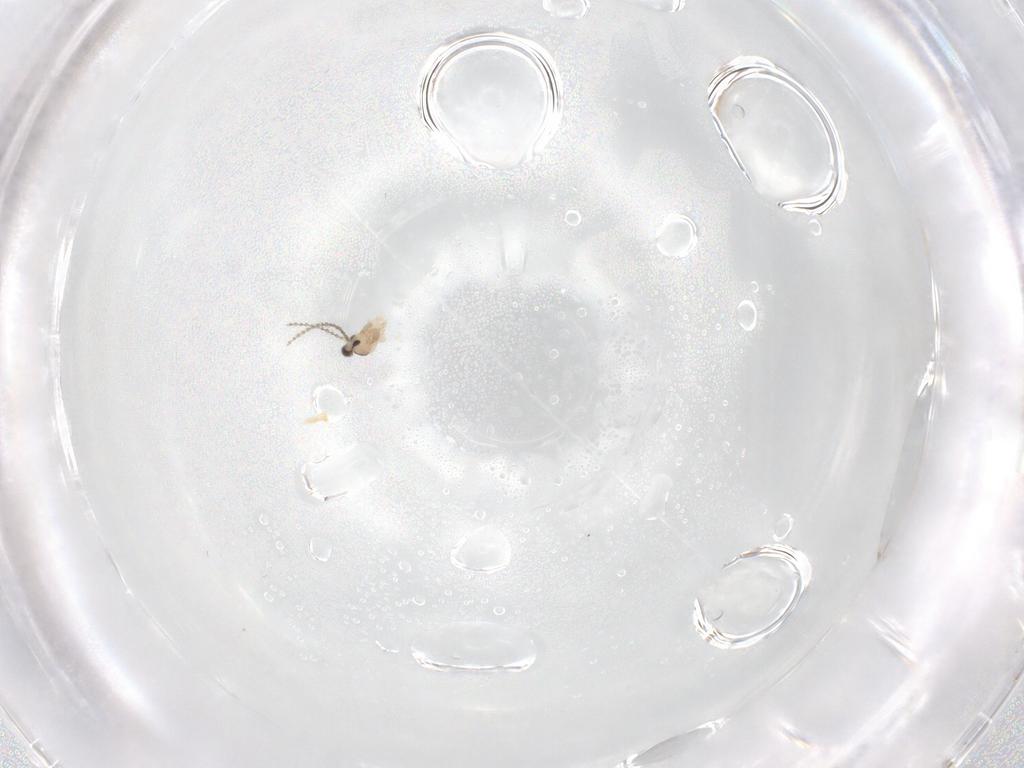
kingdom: Animalia
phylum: Arthropoda
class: Insecta
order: Diptera
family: Cecidomyiidae
